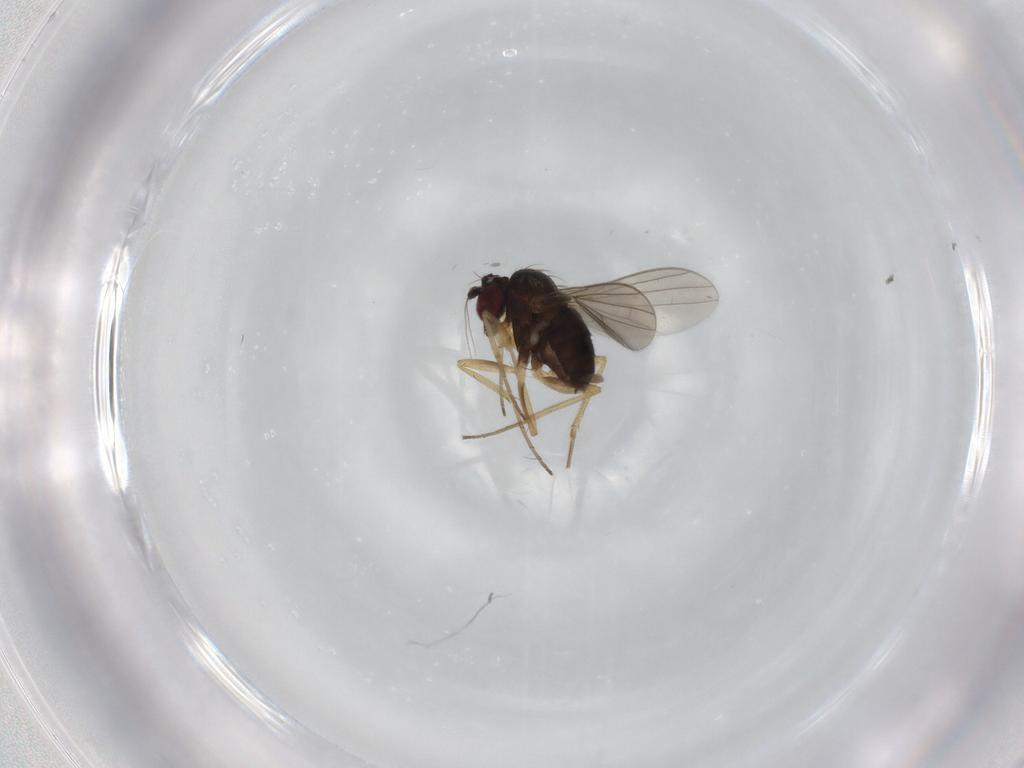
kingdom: Animalia
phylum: Arthropoda
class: Insecta
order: Diptera
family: Dolichopodidae
